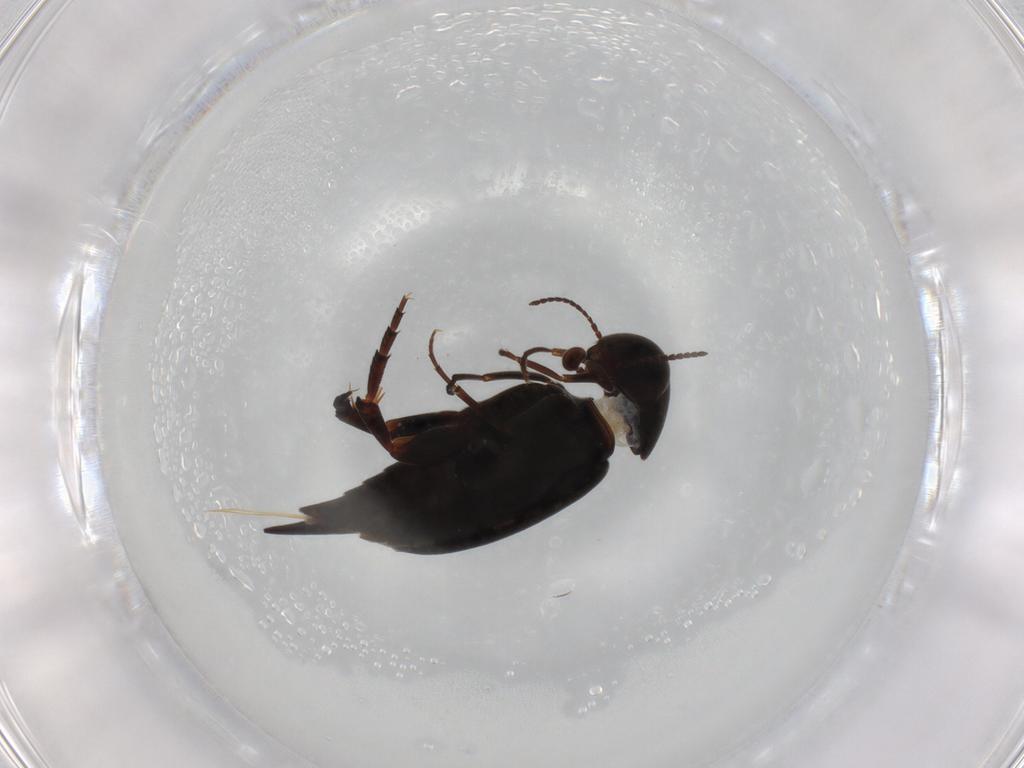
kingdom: Animalia
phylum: Arthropoda
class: Insecta
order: Coleoptera
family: Mordellidae
